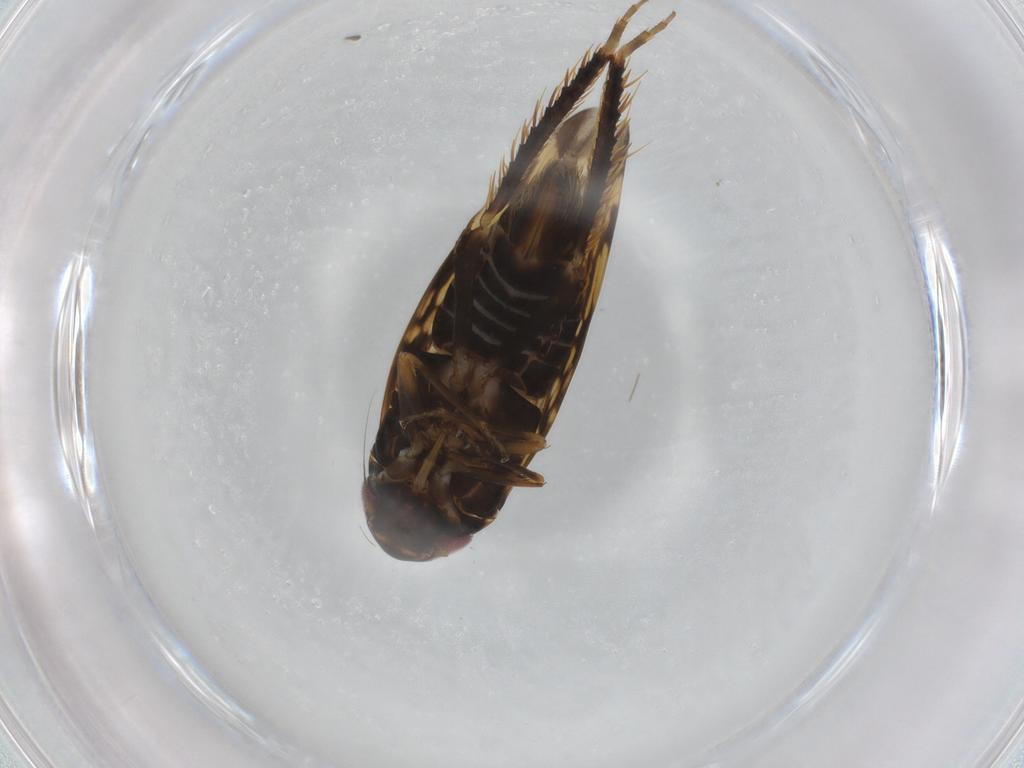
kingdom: Animalia
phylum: Arthropoda
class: Insecta
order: Hemiptera
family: Cicadellidae
